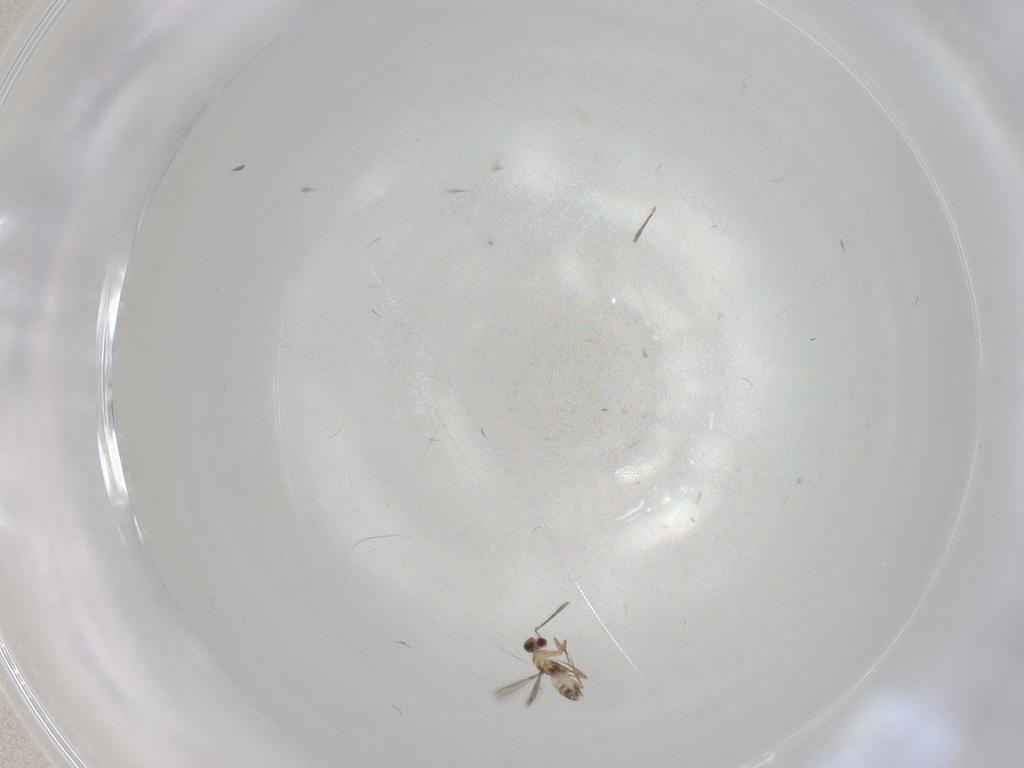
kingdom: Animalia
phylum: Arthropoda
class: Insecta
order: Hymenoptera
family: Mymaridae
